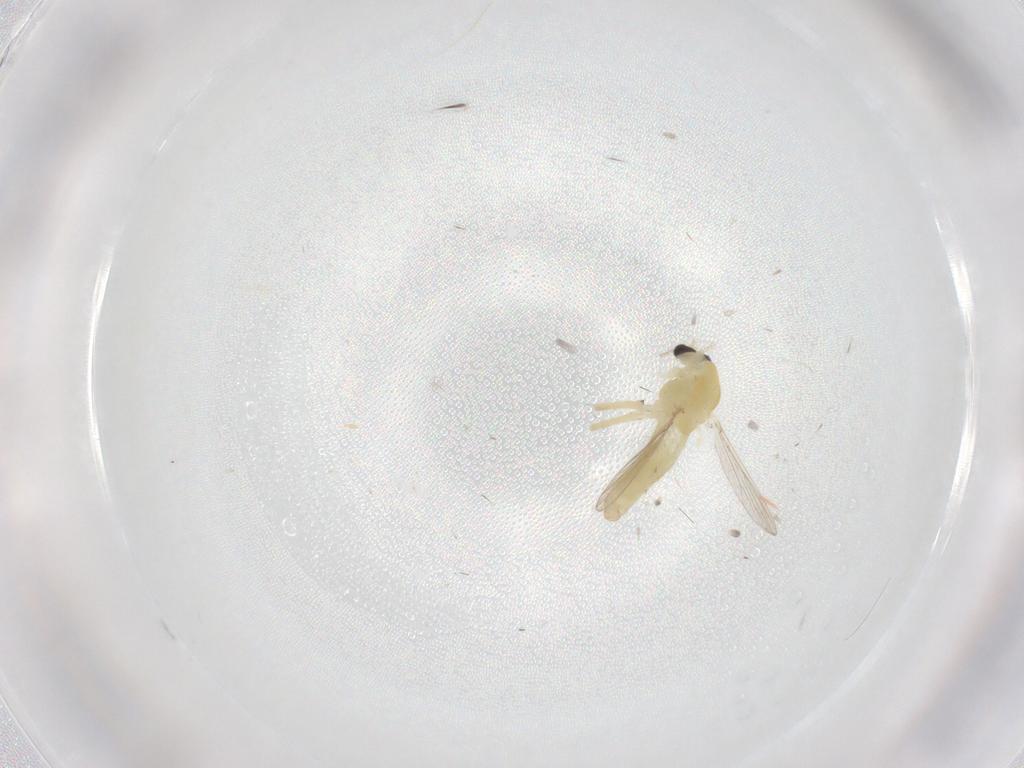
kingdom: Animalia
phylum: Arthropoda
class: Insecta
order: Diptera
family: Chironomidae
